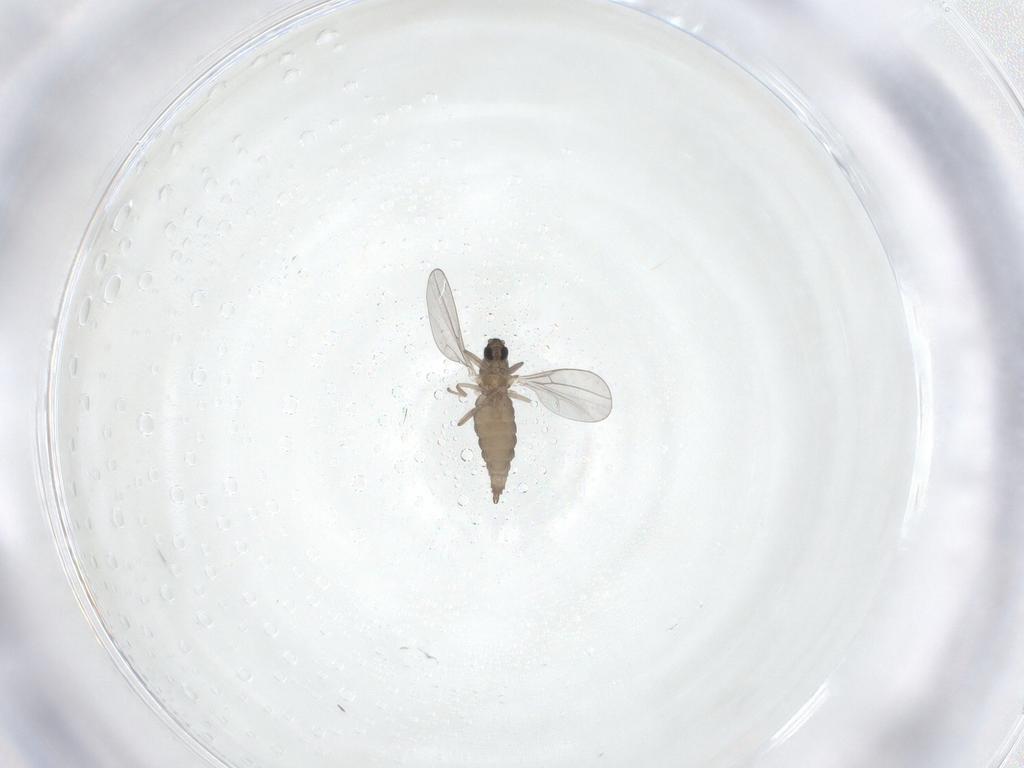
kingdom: Animalia
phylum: Arthropoda
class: Insecta
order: Diptera
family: Cecidomyiidae
